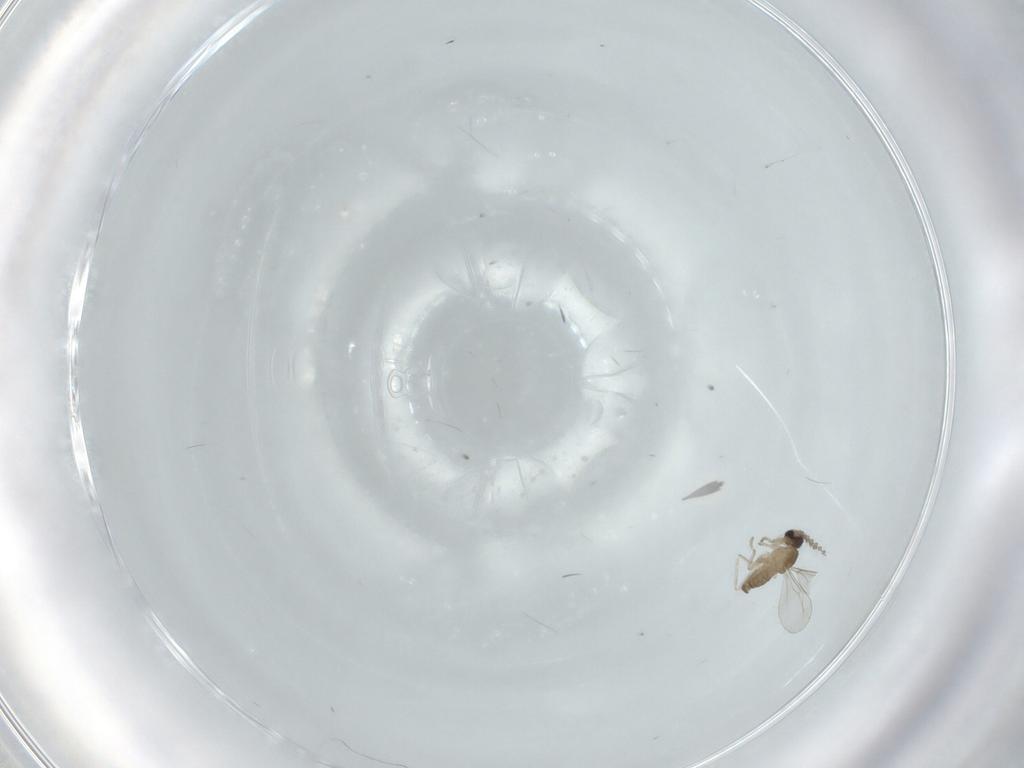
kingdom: Animalia
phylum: Arthropoda
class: Insecta
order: Diptera
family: Cecidomyiidae
